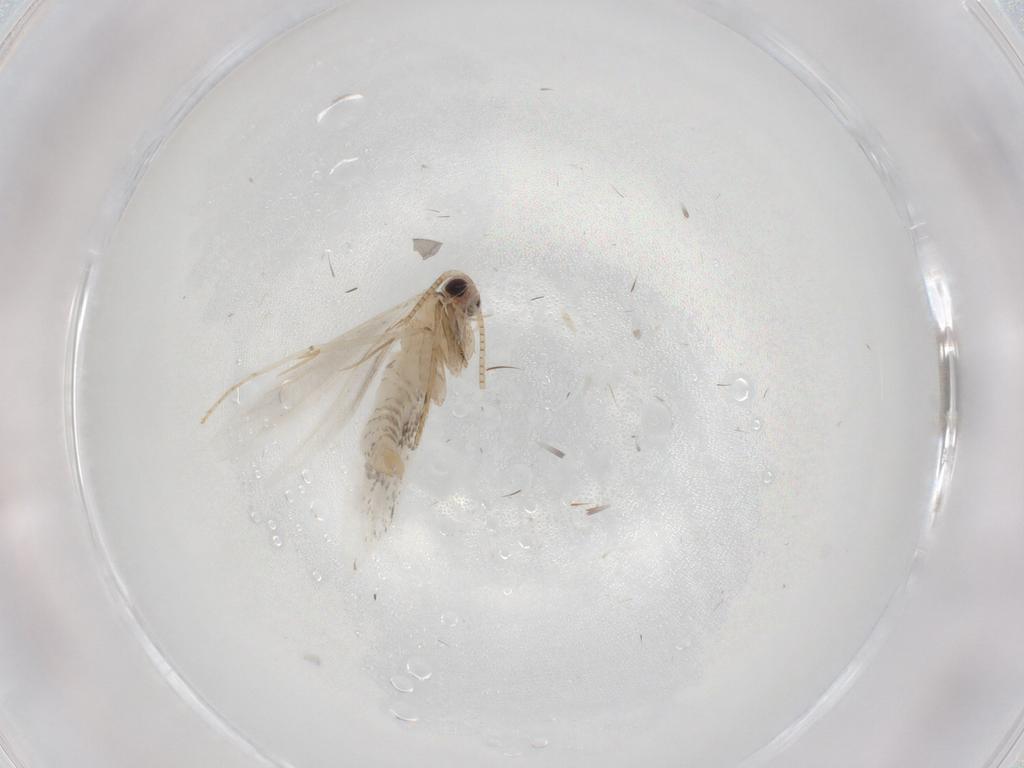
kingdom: Animalia
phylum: Arthropoda
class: Insecta
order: Lepidoptera
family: Tineidae
